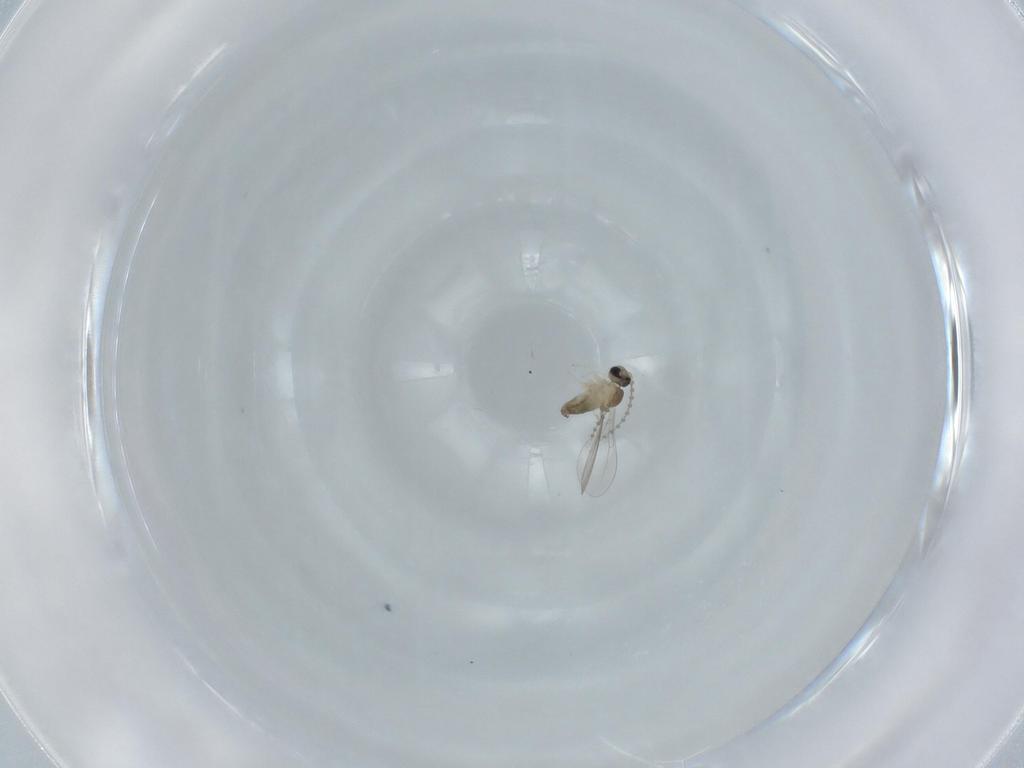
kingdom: Animalia
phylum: Arthropoda
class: Insecta
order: Diptera
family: Phoridae
